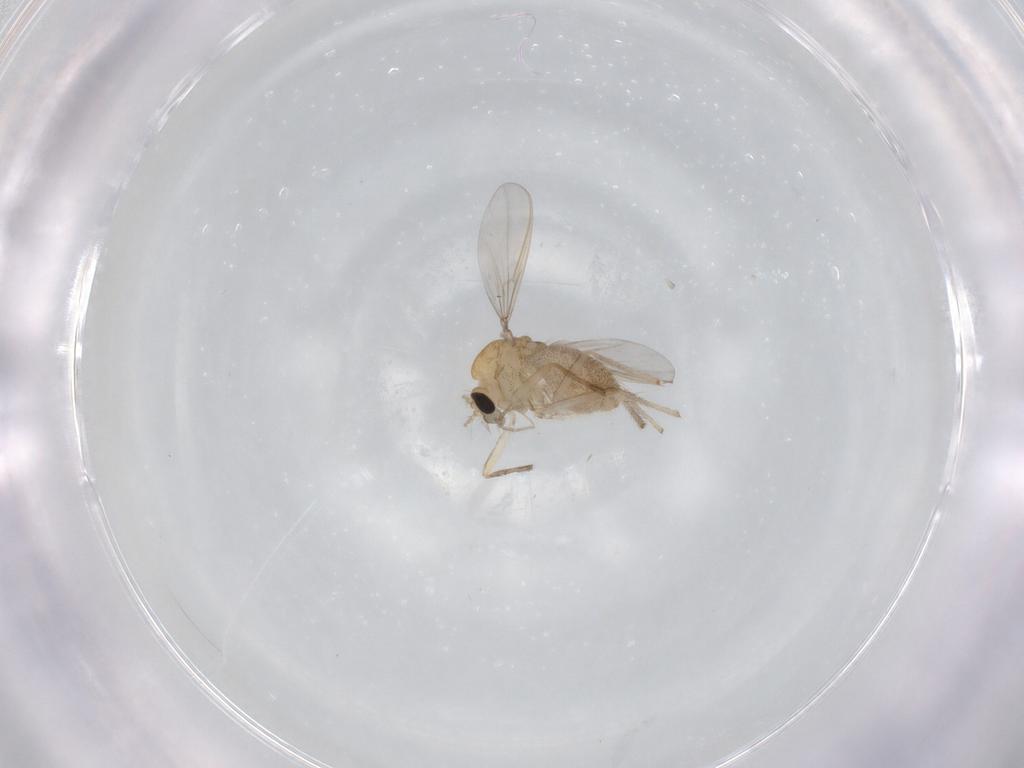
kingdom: Animalia
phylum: Arthropoda
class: Insecta
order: Diptera
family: Chironomidae
